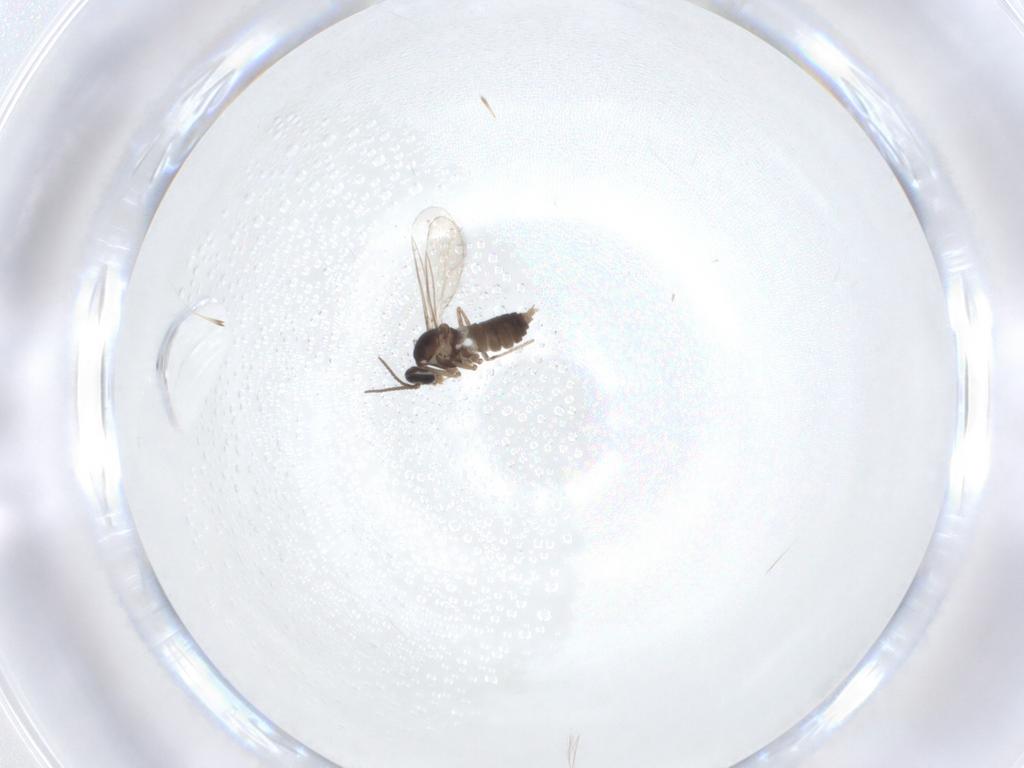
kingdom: Animalia
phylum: Arthropoda
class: Insecta
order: Diptera
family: Cecidomyiidae
